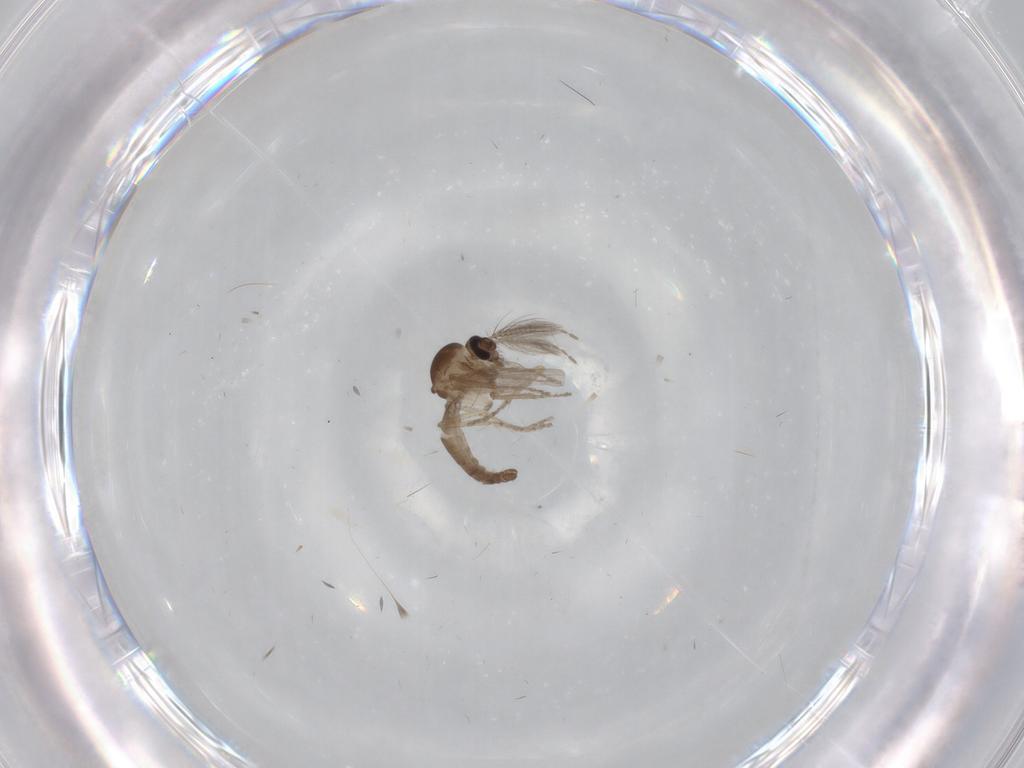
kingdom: Animalia
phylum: Arthropoda
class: Insecta
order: Diptera
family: Ceratopogonidae
